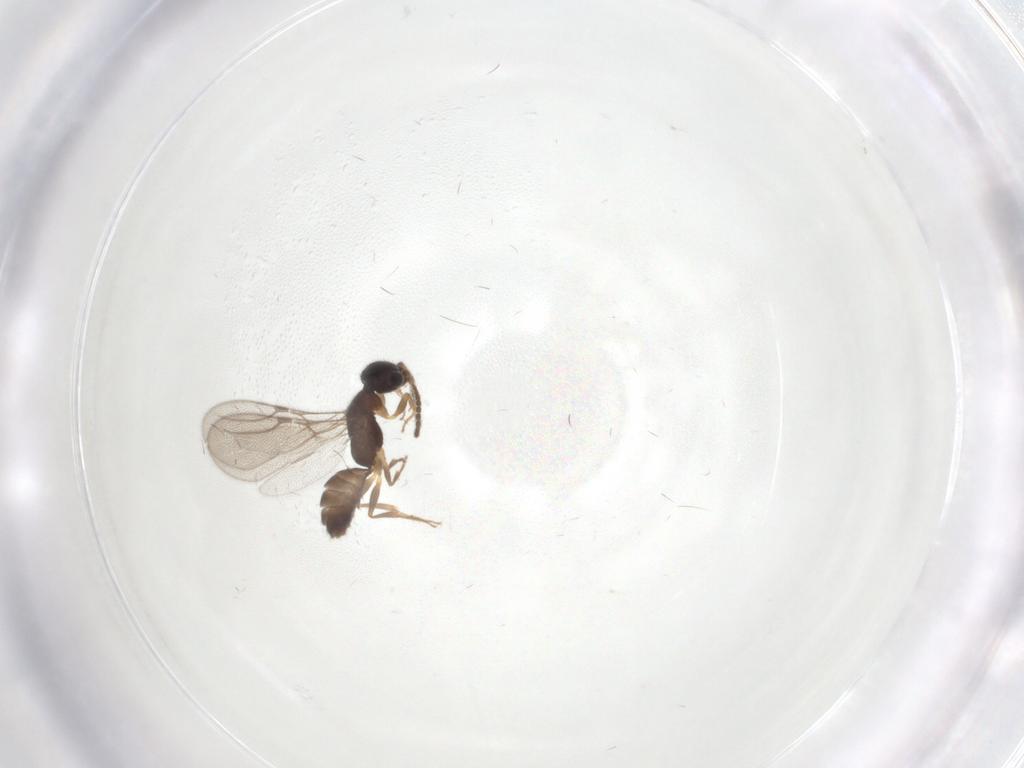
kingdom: Animalia
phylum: Arthropoda
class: Insecta
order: Hymenoptera
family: Bethylidae
